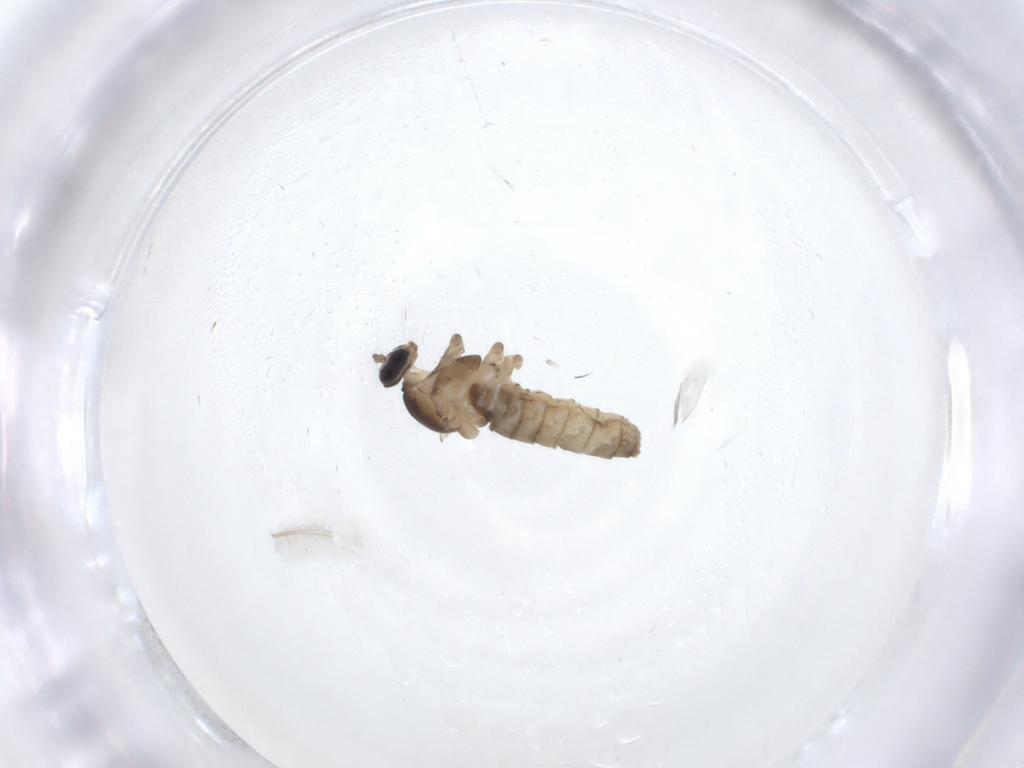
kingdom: Animalia
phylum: Arthropoda
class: Insecta
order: Diptera
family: Cecidomyiidae
